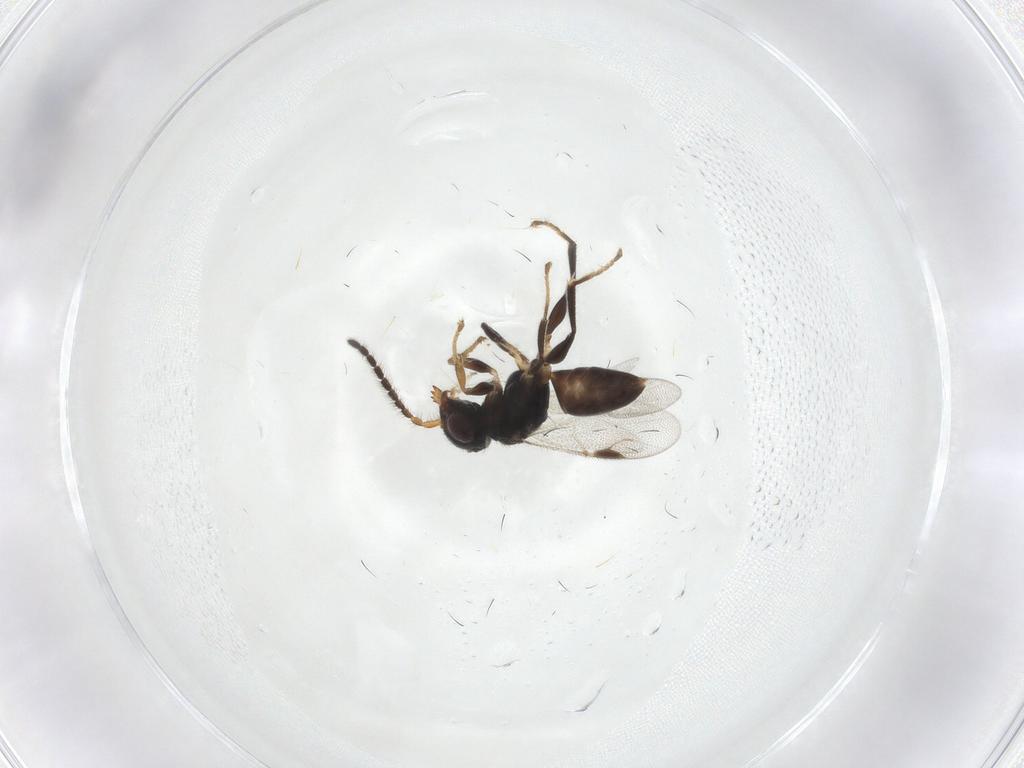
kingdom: Animalia
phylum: Arthropoda
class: Insecta
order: Hymenoptera
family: Dryinidae
